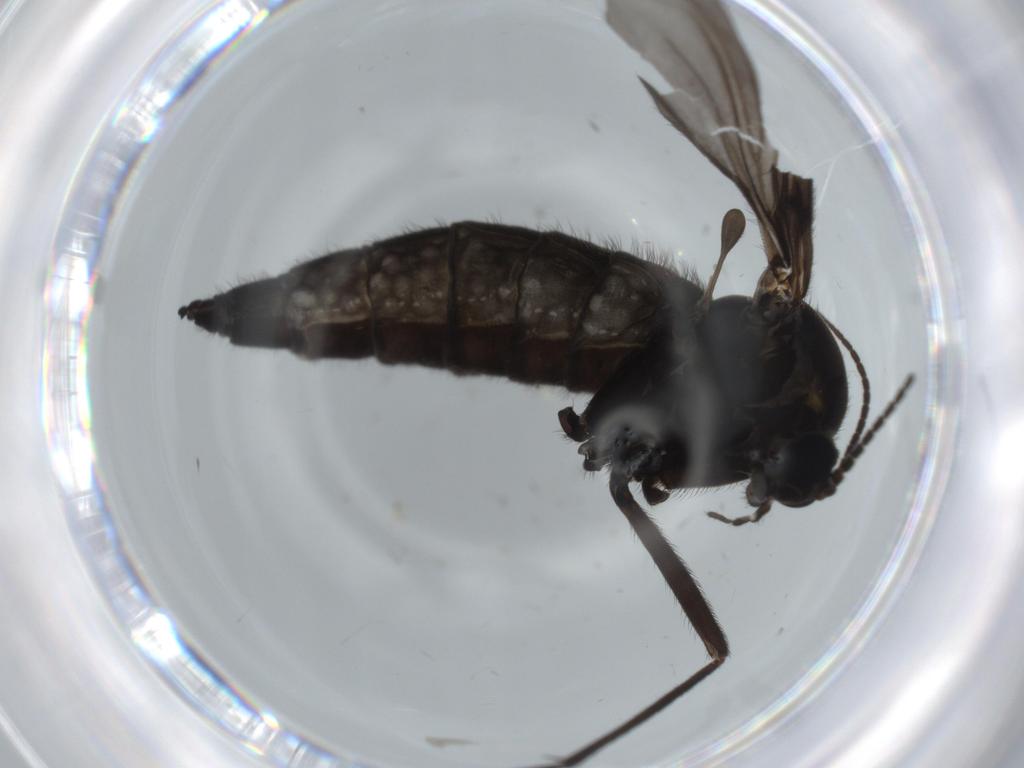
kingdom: Animalia
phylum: Arthropoda
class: Insecta
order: Diptera
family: Sciaridae
